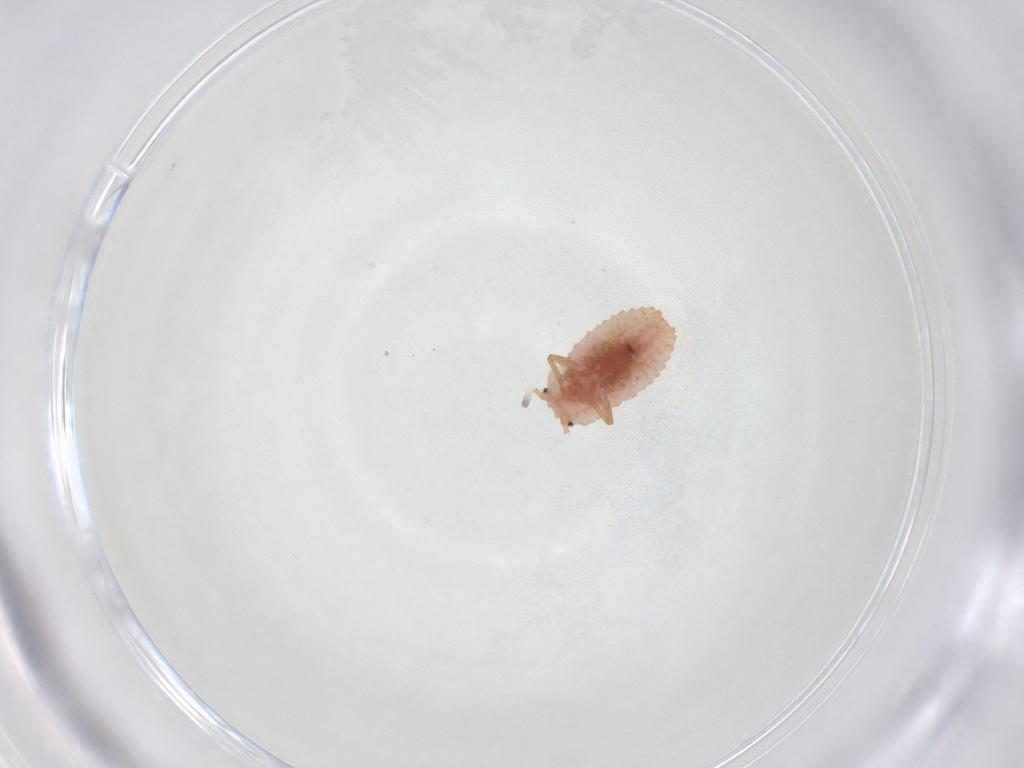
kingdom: Animalia
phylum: Arthropoda
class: Insecta
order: Hemiptera
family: Coccoidea_incertae_sedis
